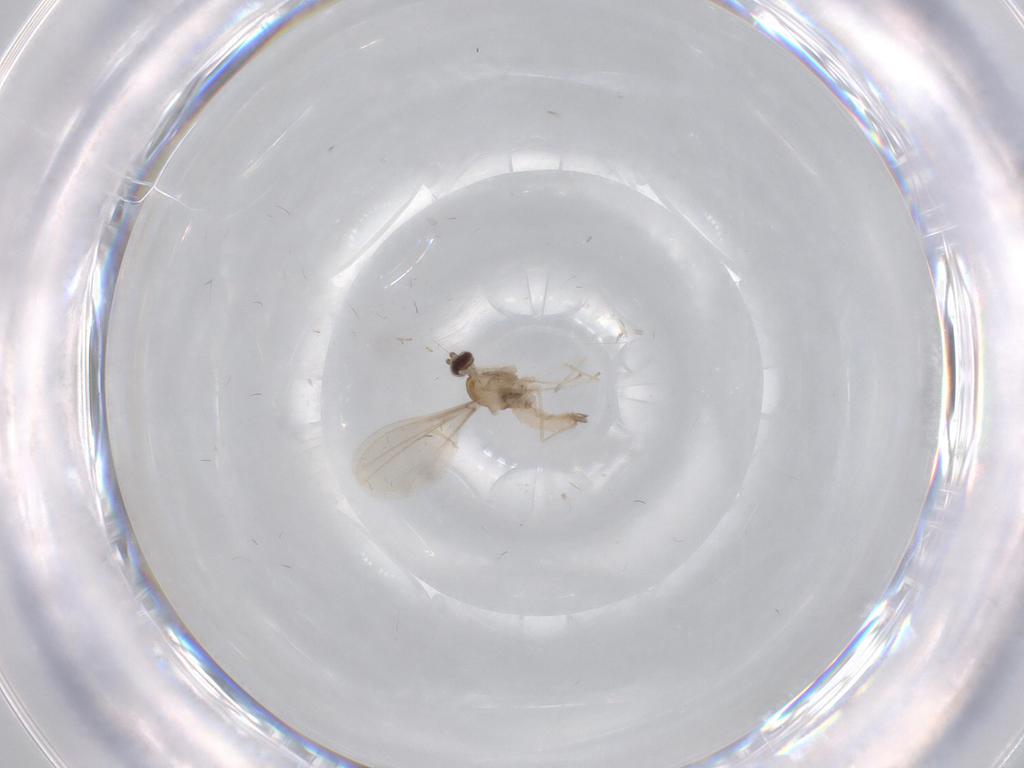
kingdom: Animalia
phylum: Arthropoda
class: Insecta
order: Diptera
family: Cecidomyiidae
